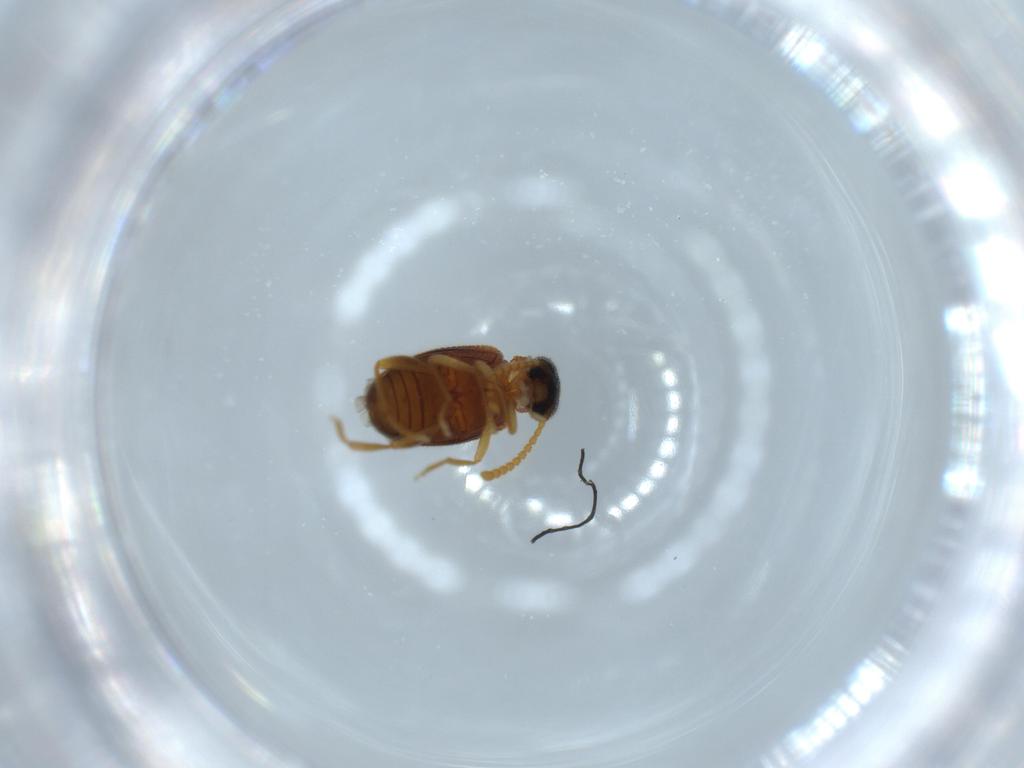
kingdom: Animalia
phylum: Arthropoda
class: Insecta
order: Coleoptera
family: Aderidae
